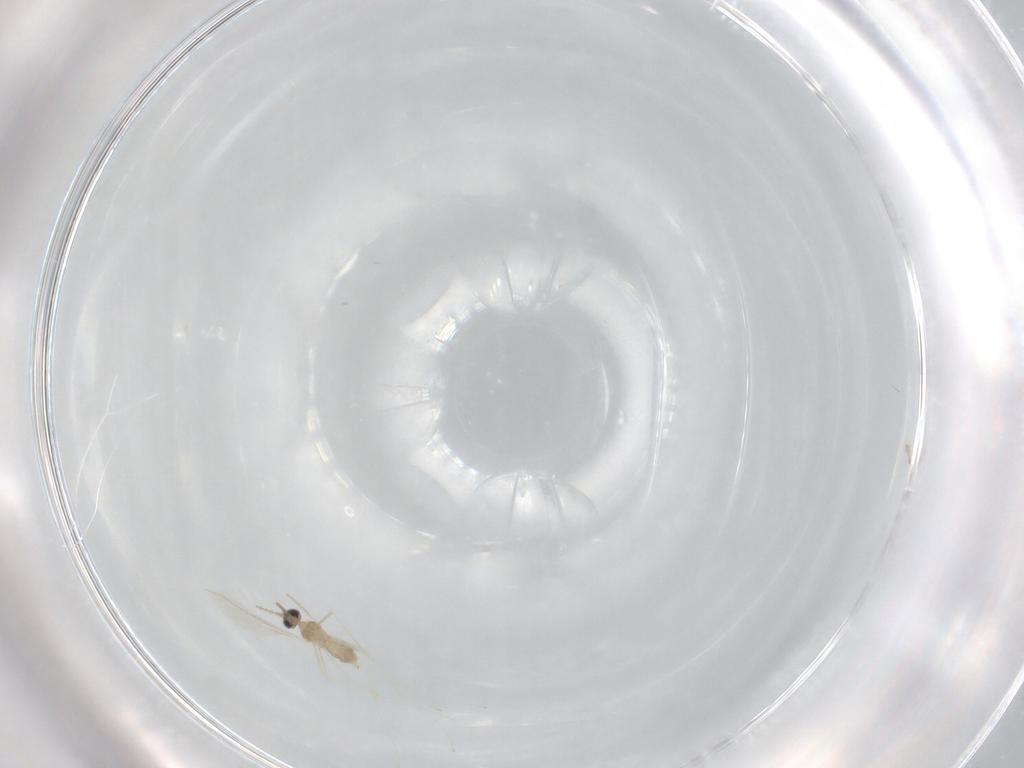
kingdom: Animalia
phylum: Arthropoda
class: Insecta
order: Diptera
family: Cecidomyiidae
